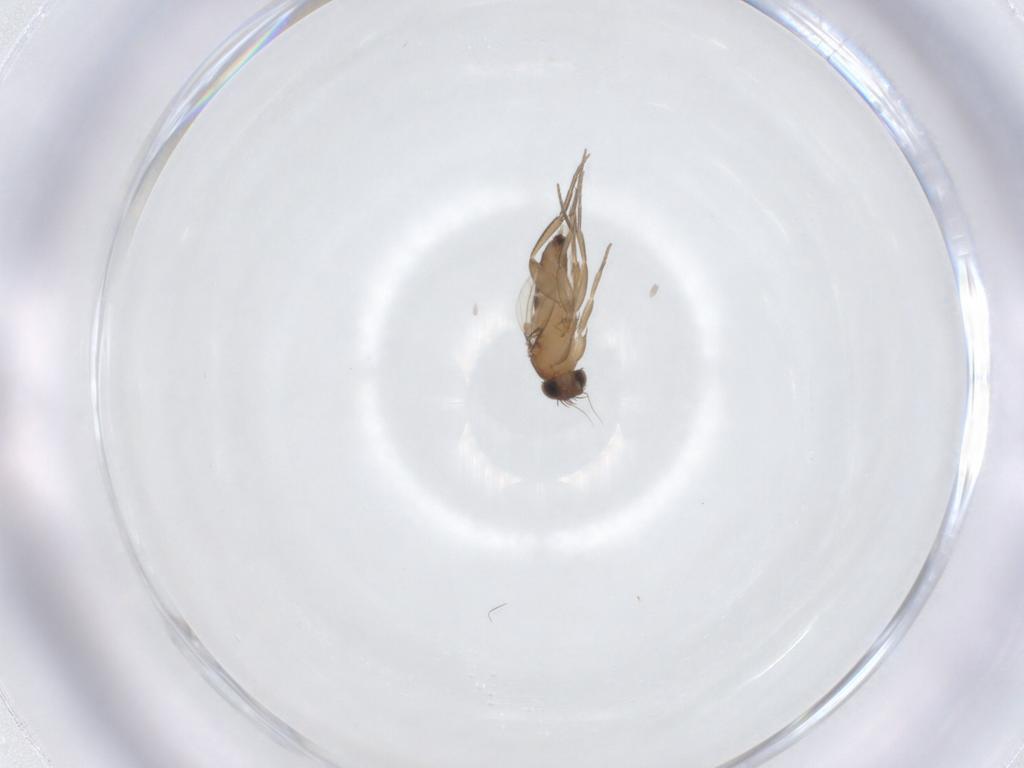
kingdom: Animalia
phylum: Arthropoda
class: Insecta
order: Diptera
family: Phoridae
